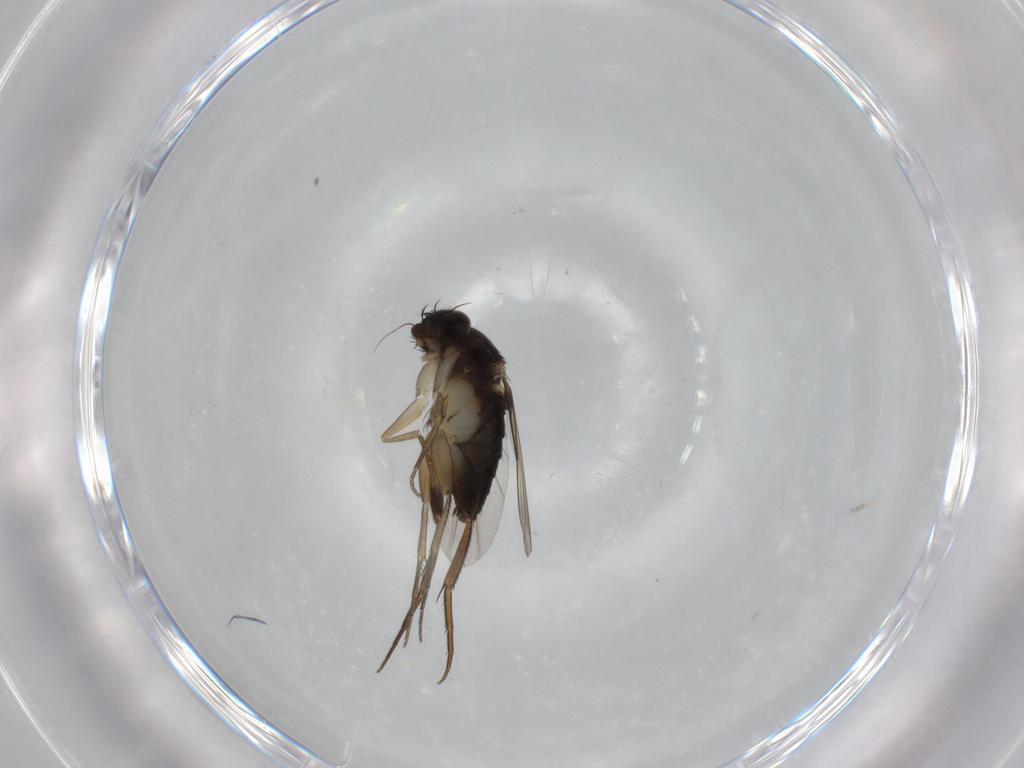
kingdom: Animalia
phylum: Arthropoda
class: Insecta
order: Diptera
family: Phoridae
